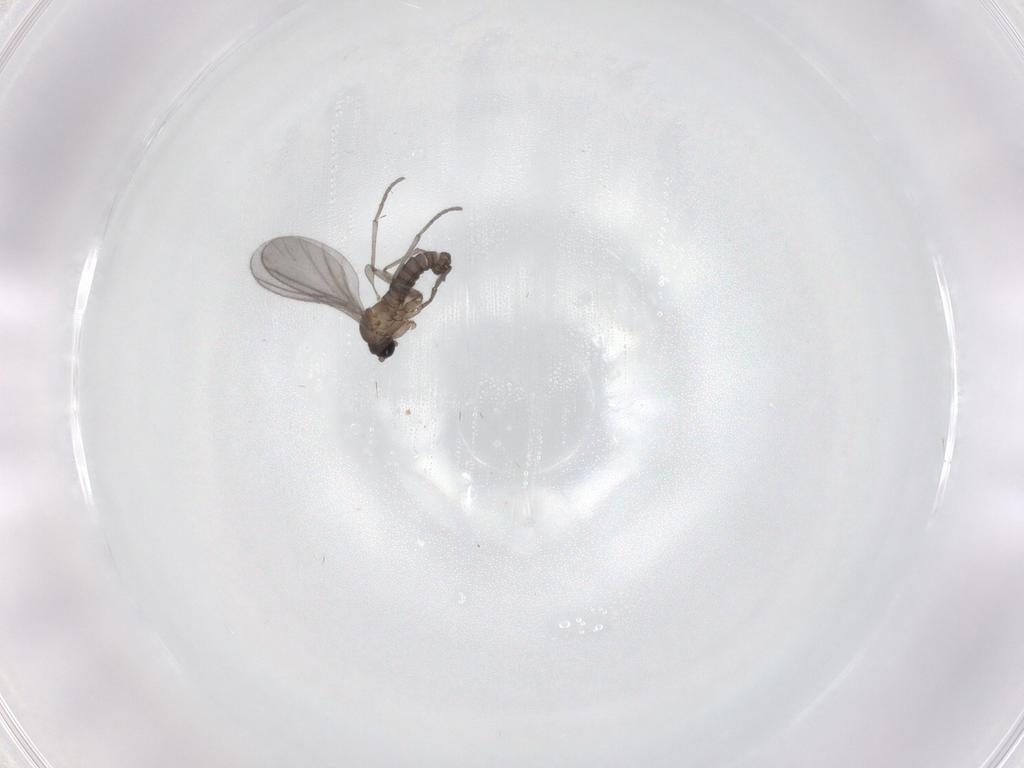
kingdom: Animalia
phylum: Arthropoda
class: Insecta
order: Diptera
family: Sciaridae
